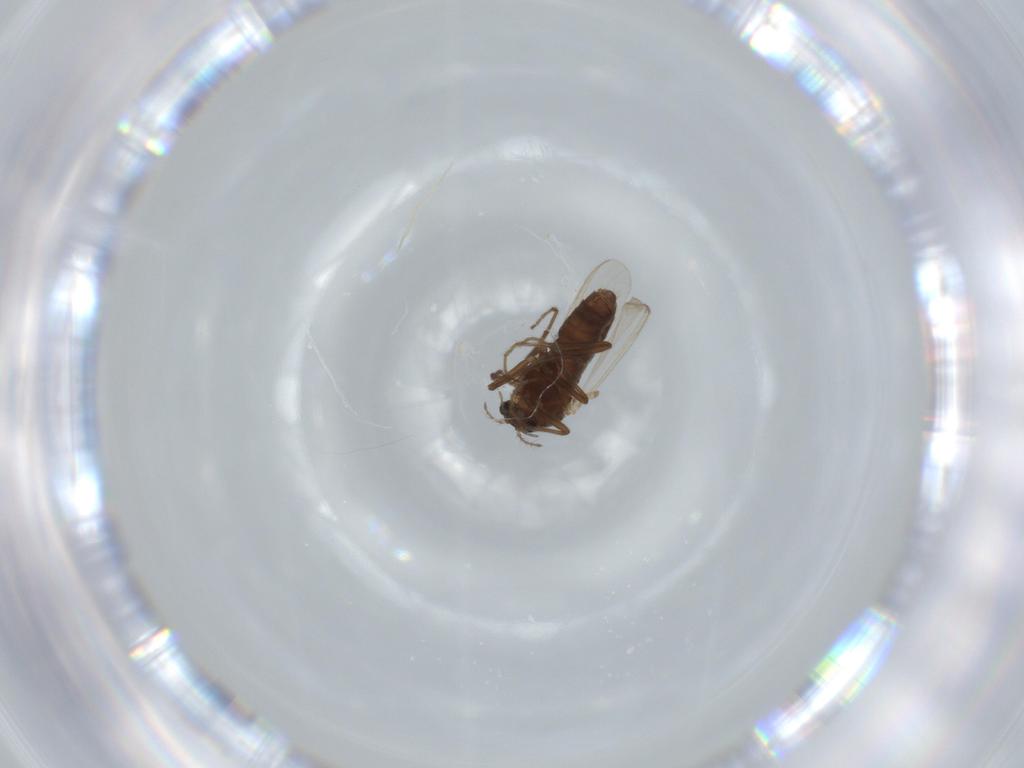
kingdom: Animalia
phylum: Arthropoda
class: Insecta
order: Diptera
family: Chironomidae
